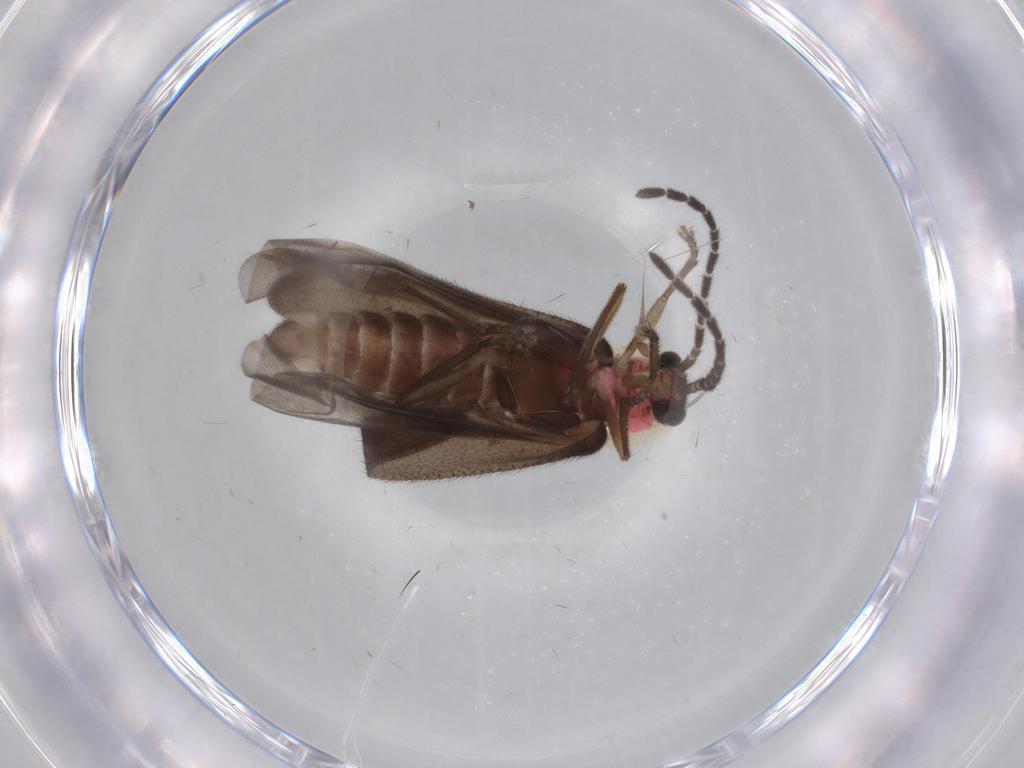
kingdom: Animalia
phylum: Arthropoda
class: Insecta
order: Coleoptera
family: Ptilodactylidae
